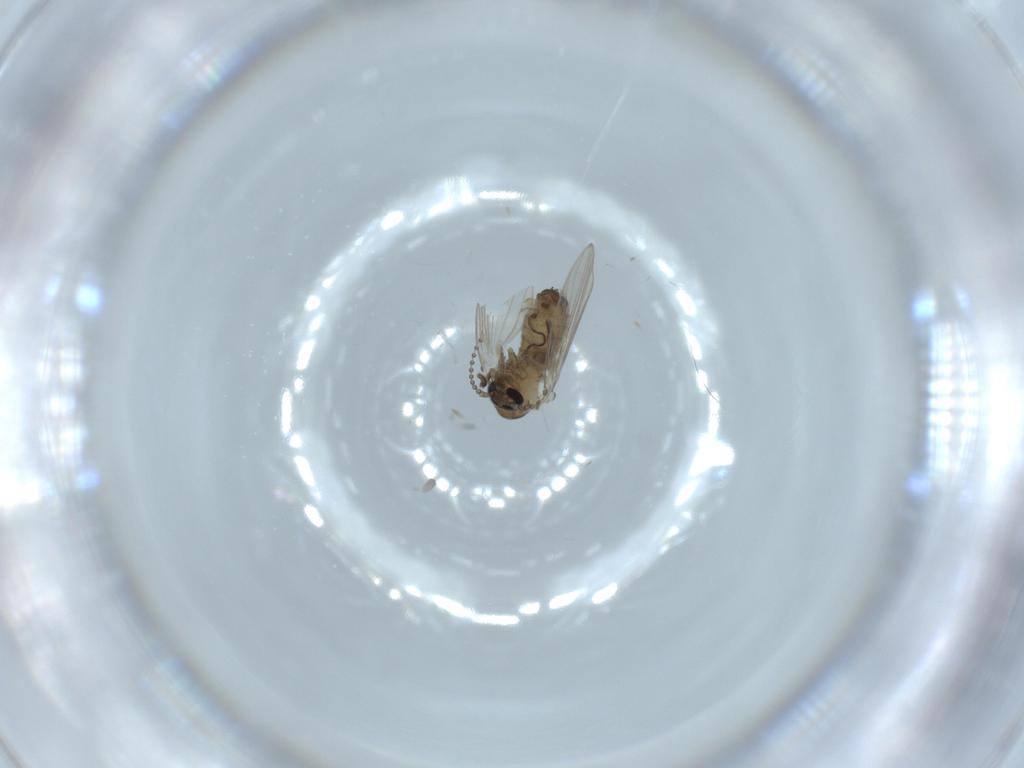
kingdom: Animalia
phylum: Arthropoda
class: Insecta
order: Diptera
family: Psychodidae
